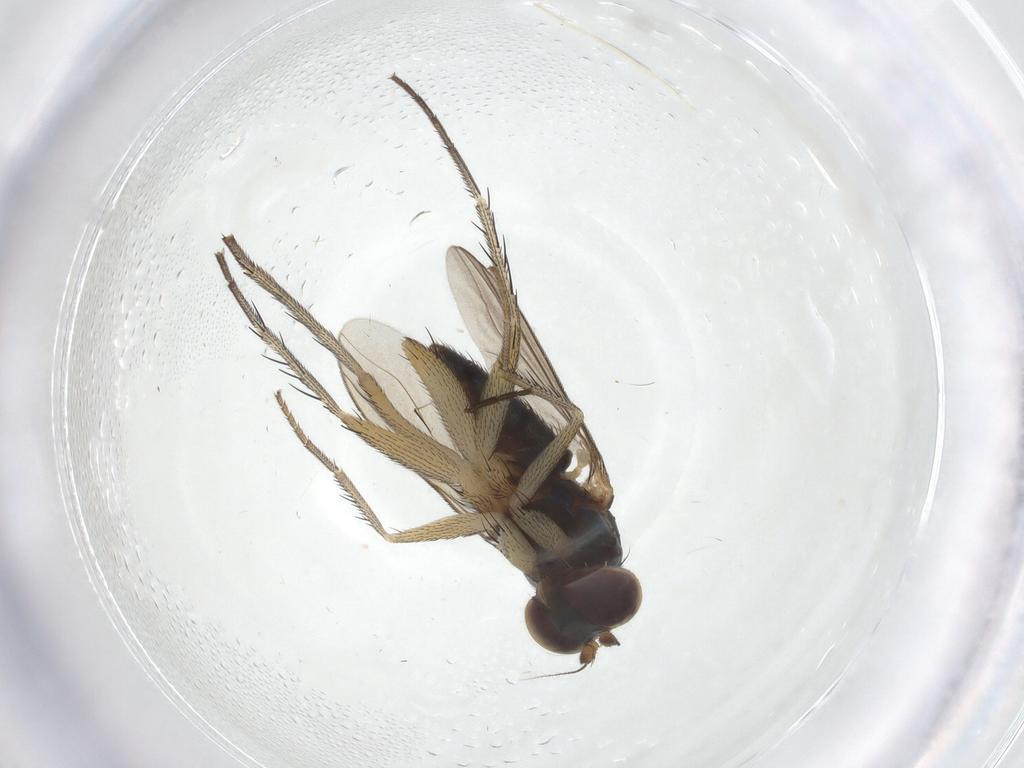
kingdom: Animalia
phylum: Arthropoda
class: Insecta
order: Diptera
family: Dolichopodidae
